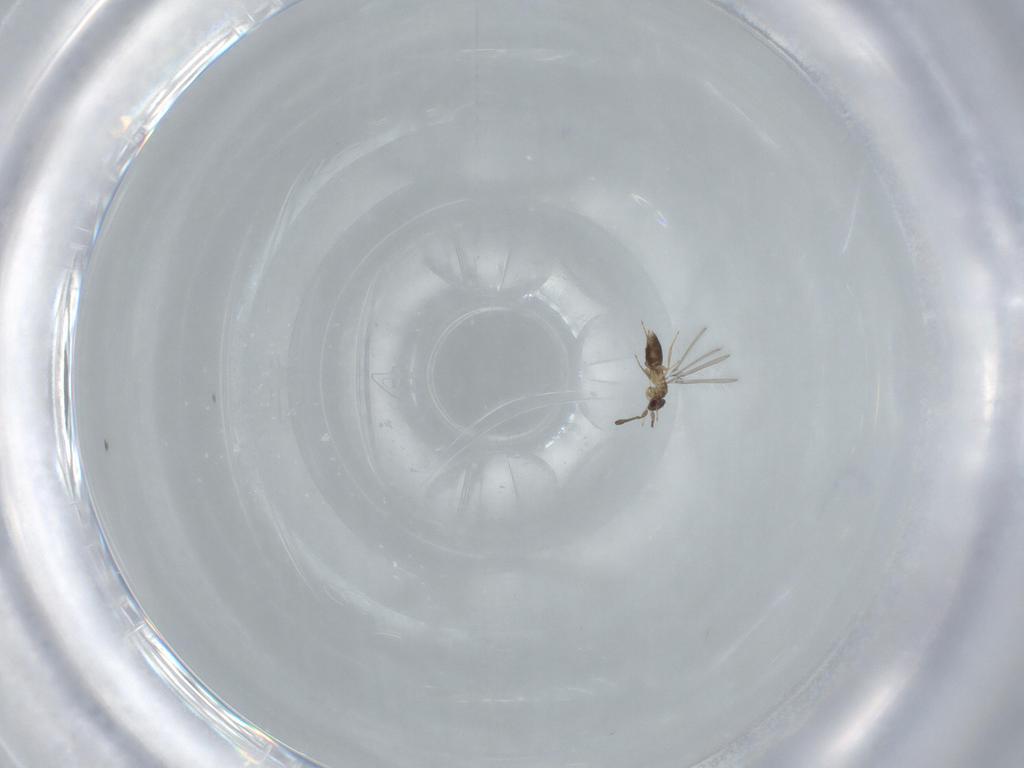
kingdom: Animalia
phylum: Arthropoda
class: Insecta
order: Hymenoptera
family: Mymaridae
